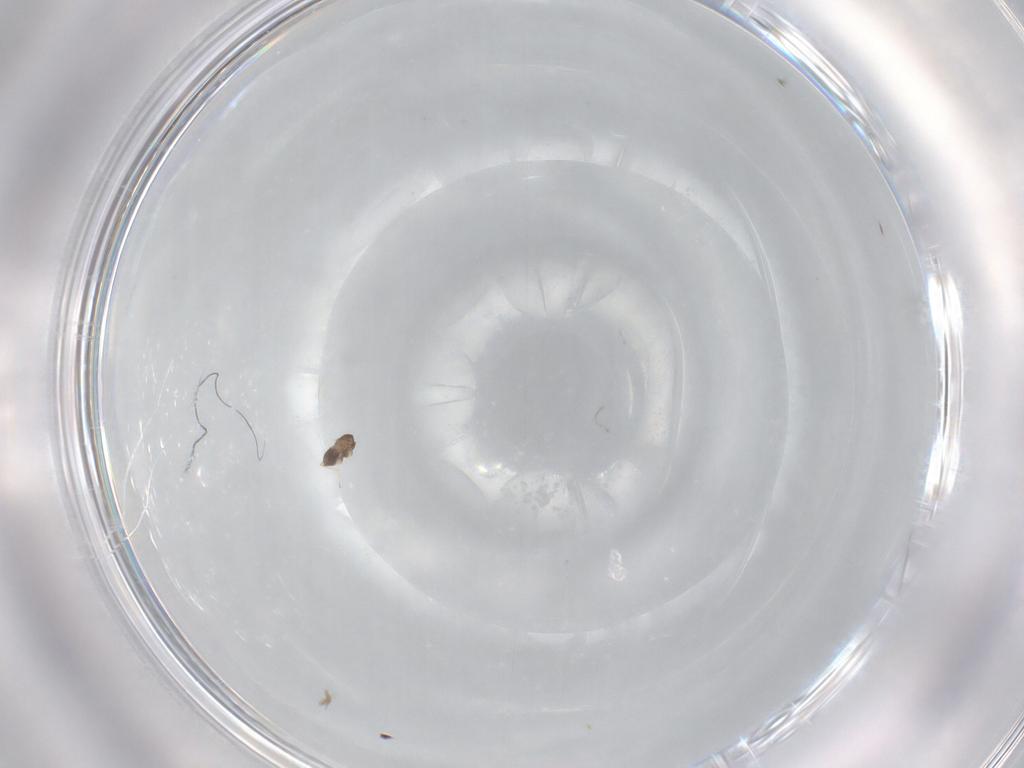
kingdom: Animalia
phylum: Arthropoda
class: Insecta
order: Hymenoptera
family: Trichogrammatidae
